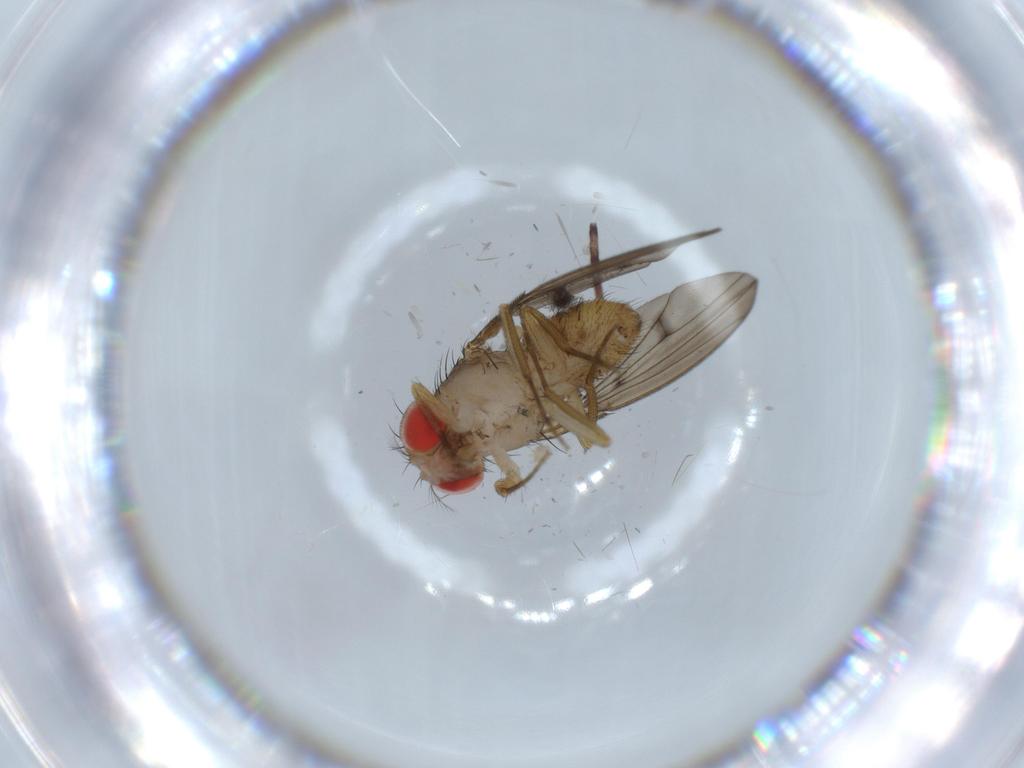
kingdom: Animalia
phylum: Arthropoda
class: Insecta
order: Diptera
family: Drosophilidae
